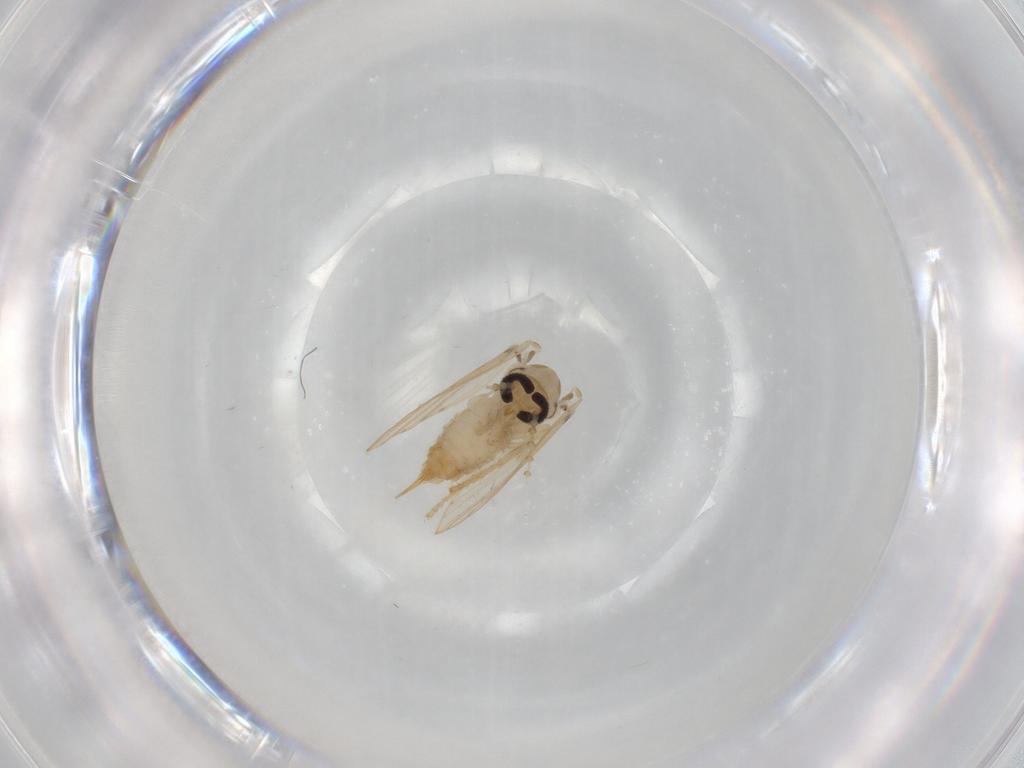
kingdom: Animalia
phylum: Arthropoda
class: Insecta
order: Diptera
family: Psychodidae
